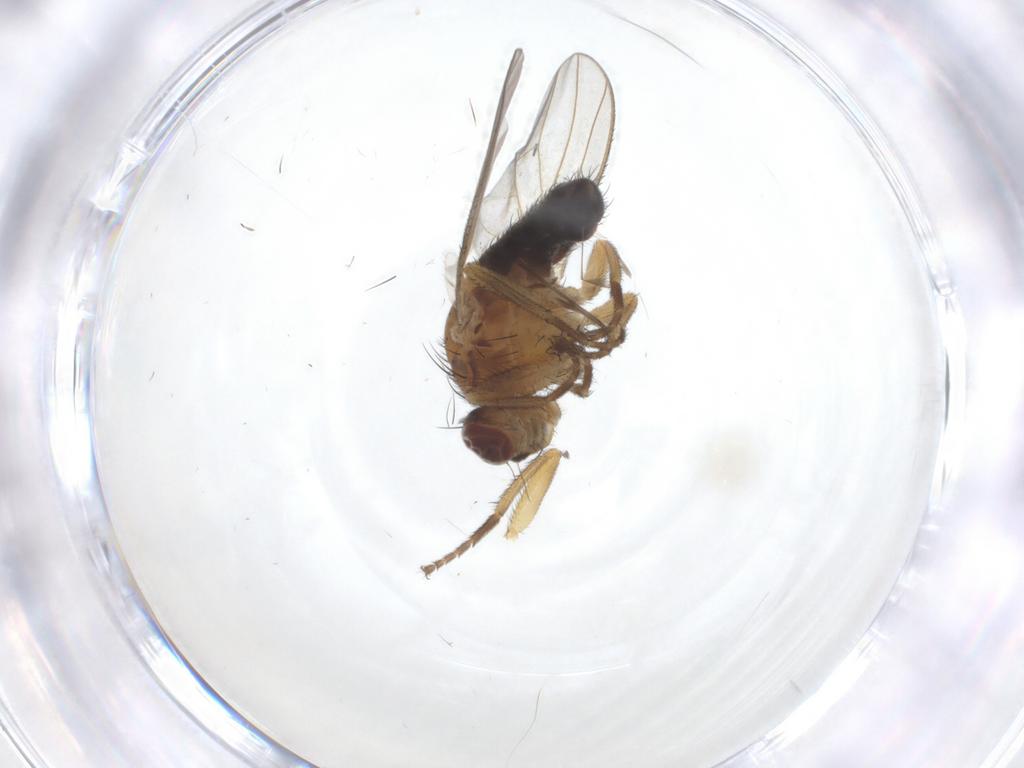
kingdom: Animalia
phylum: Arthropoda
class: Insecta
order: Diptera
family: Heleomyzidae
